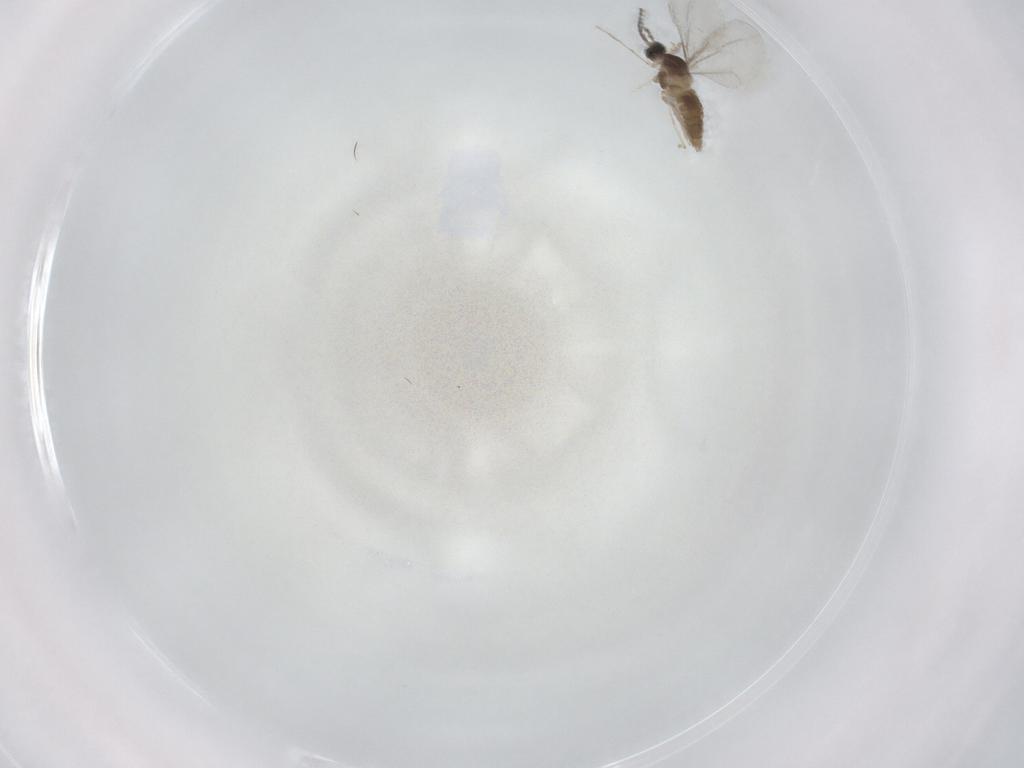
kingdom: Animalia
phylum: Arthropoda
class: Insecta
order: Diptera
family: Cecidomyiidae
